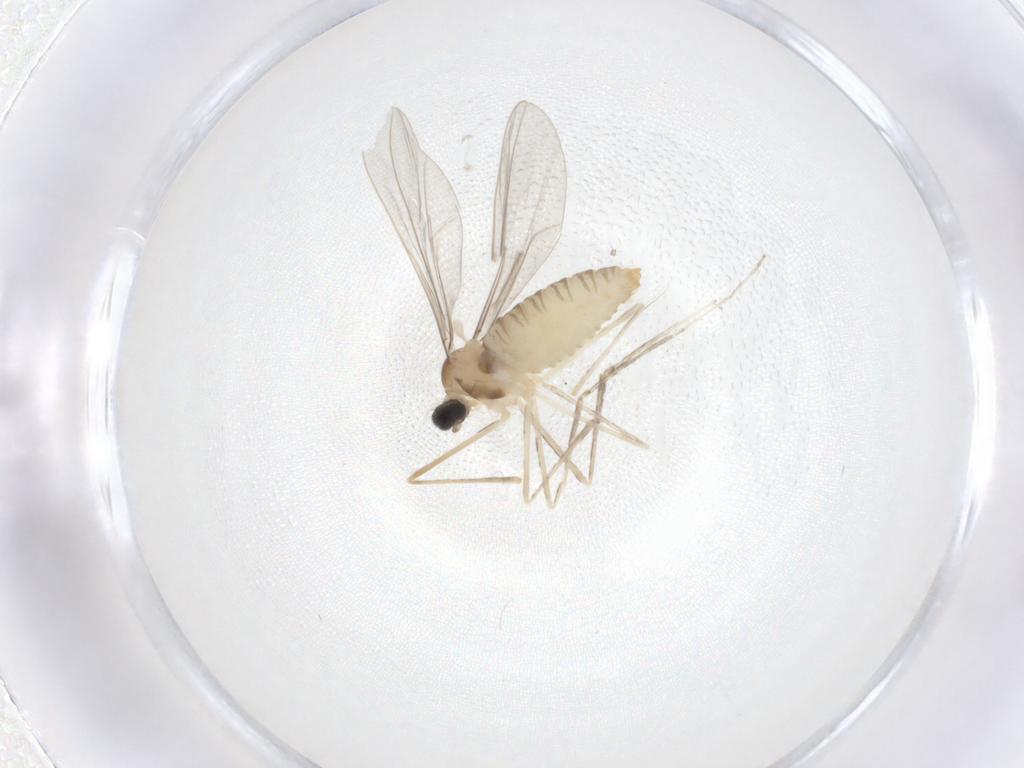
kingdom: Animalia
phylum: Arthropoda
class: Insecta
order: Diptera
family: Cecidomyiidae
